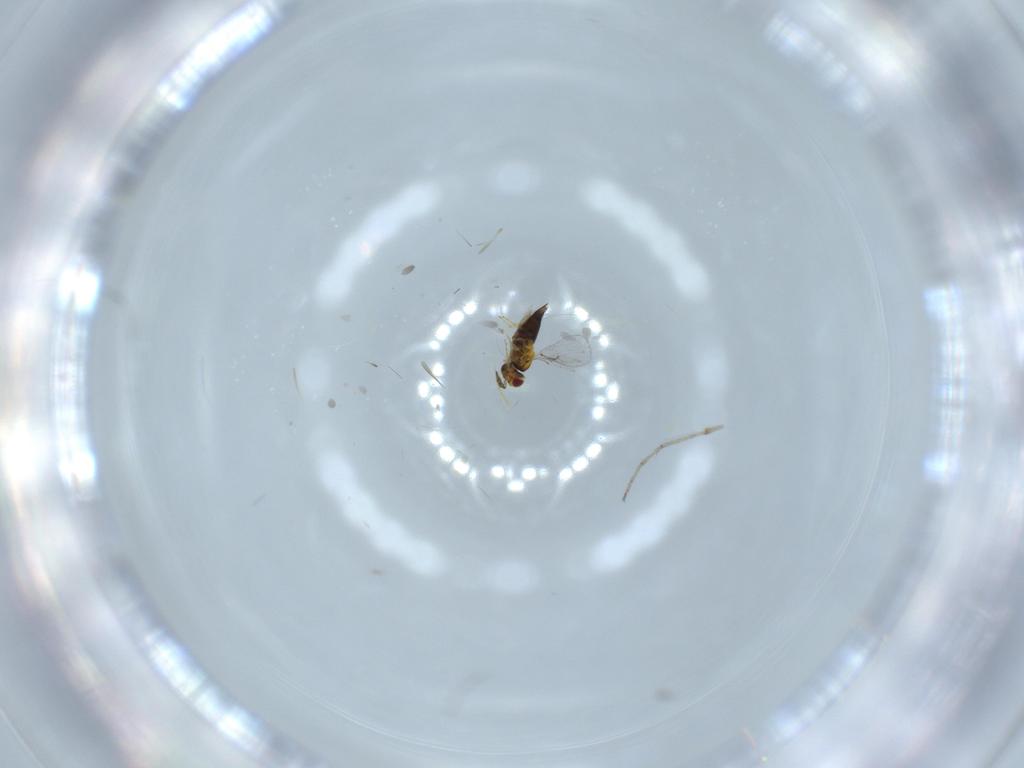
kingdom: Animalia
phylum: Arthropoda
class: Insecta
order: Hymenoptera
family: Trichogrammatidae
